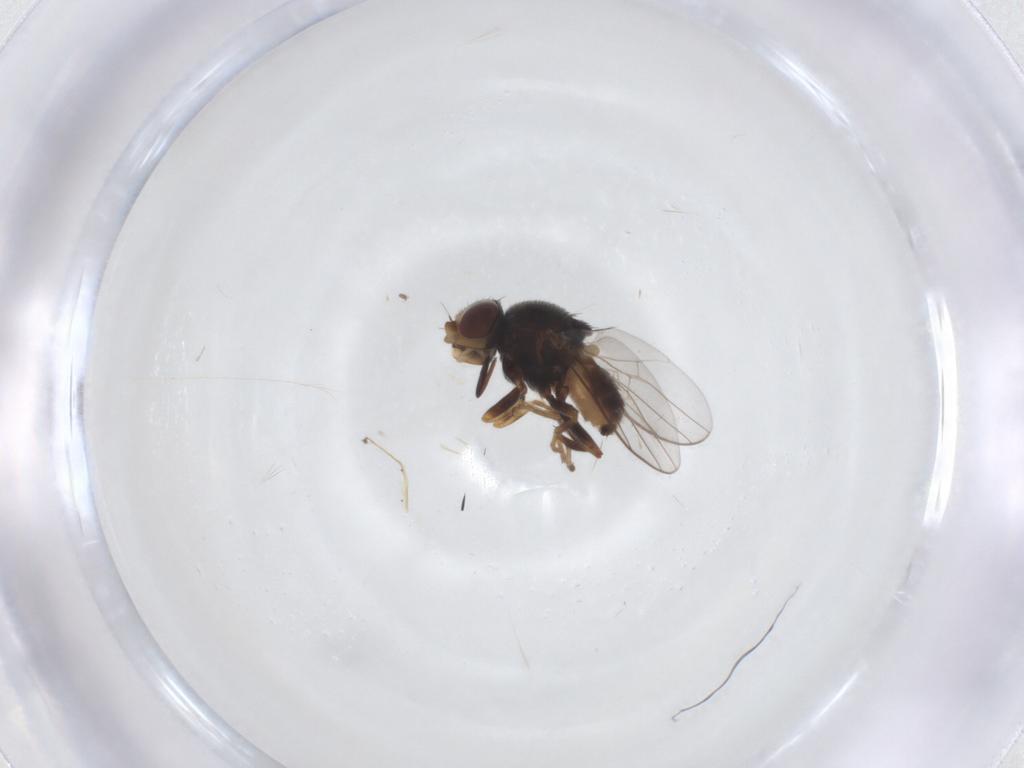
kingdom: Animalia
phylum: Arthropoda
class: Insecta
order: Diptera
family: Chloropidae
